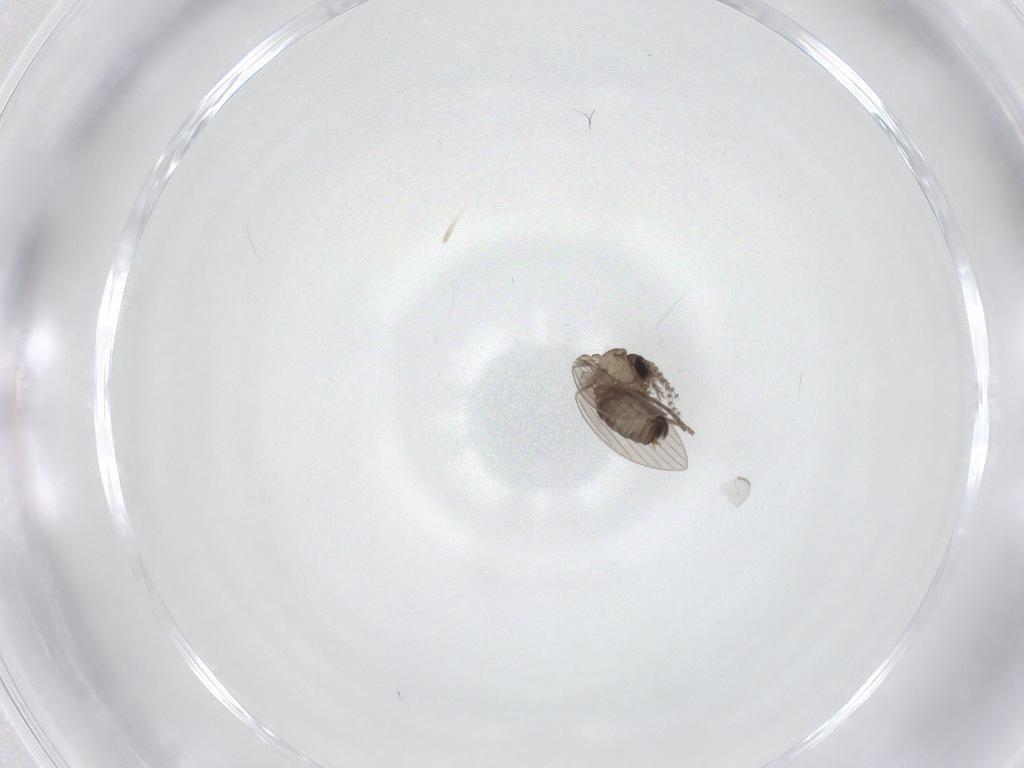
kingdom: Animalia
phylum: Arthropoda
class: Insecta
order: Diptera
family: Psychodidae
